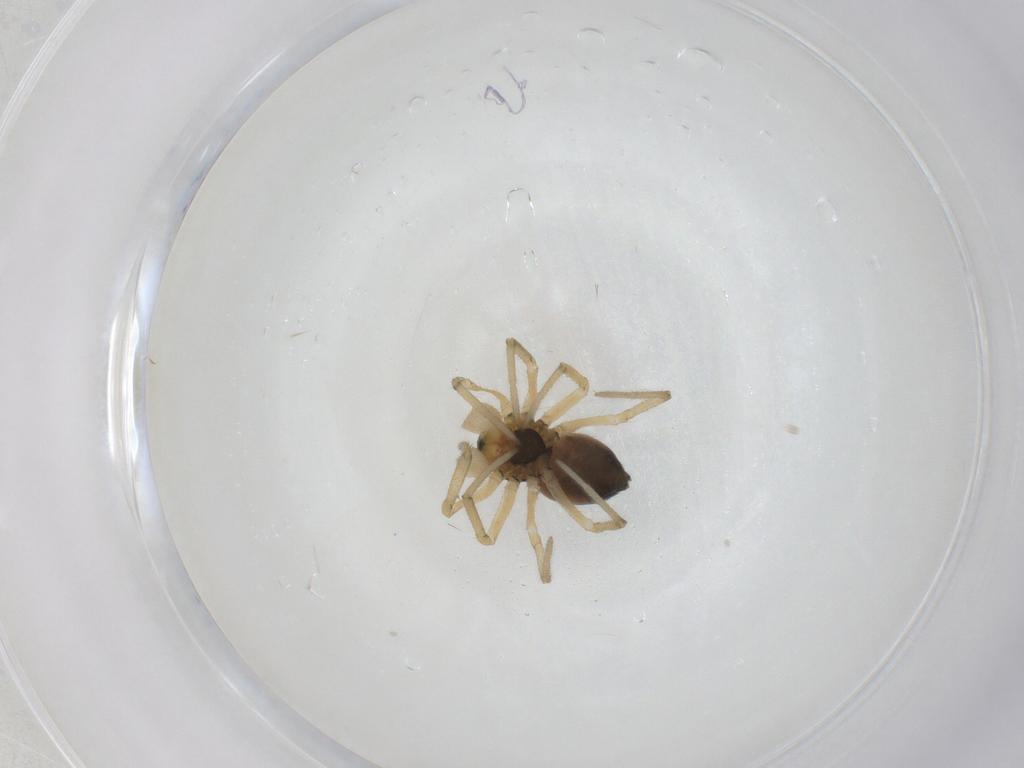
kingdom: Animalia
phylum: Arthropoda
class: Arachnida
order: Araneae
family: Linyphiidae
